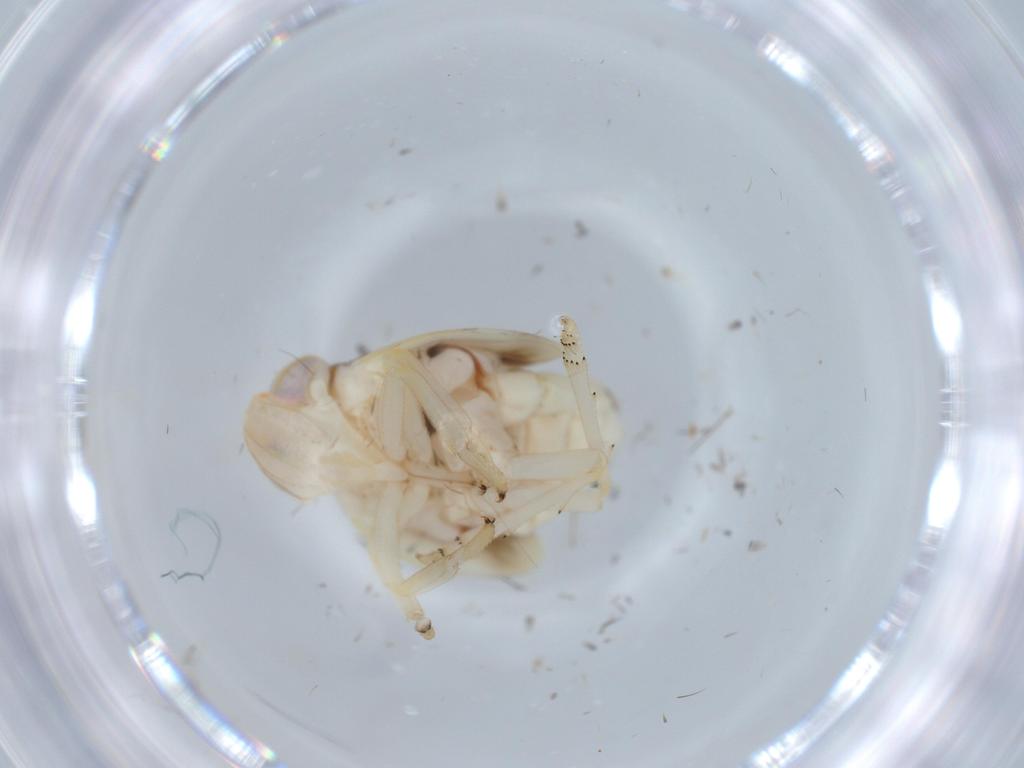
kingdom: Animalia
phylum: Arthropoda
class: Insecta
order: Hemiptera
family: Nogodinidae
